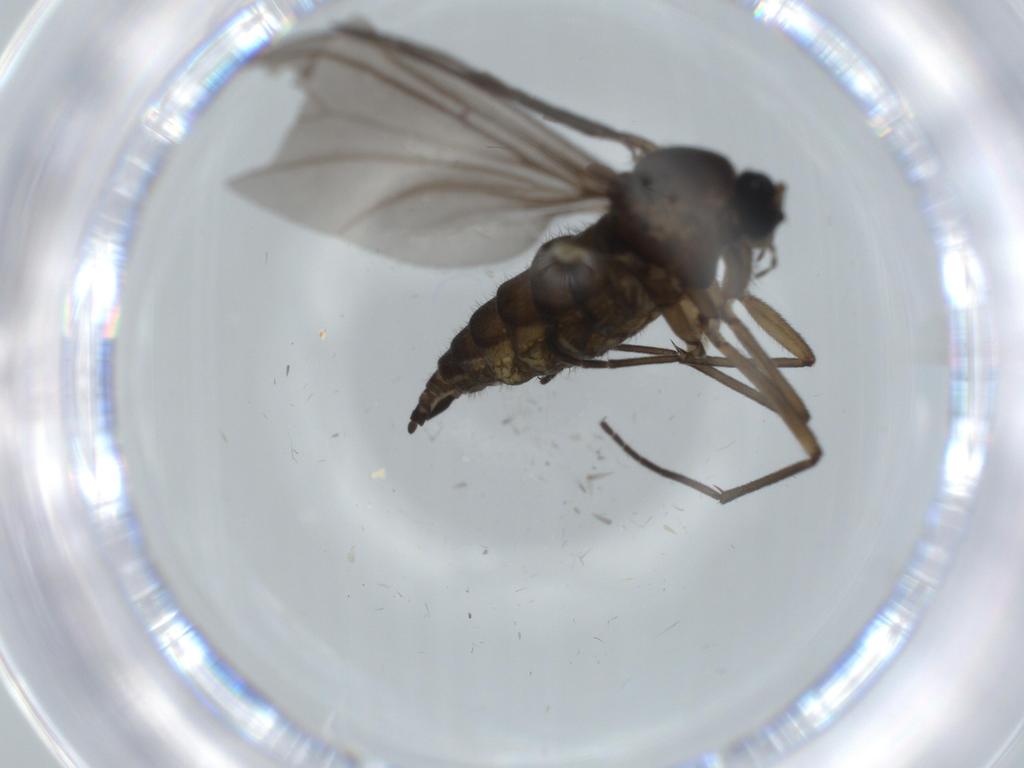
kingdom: Animalia
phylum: Arthropoda
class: Insecta
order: Diptera
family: Sciaridae
